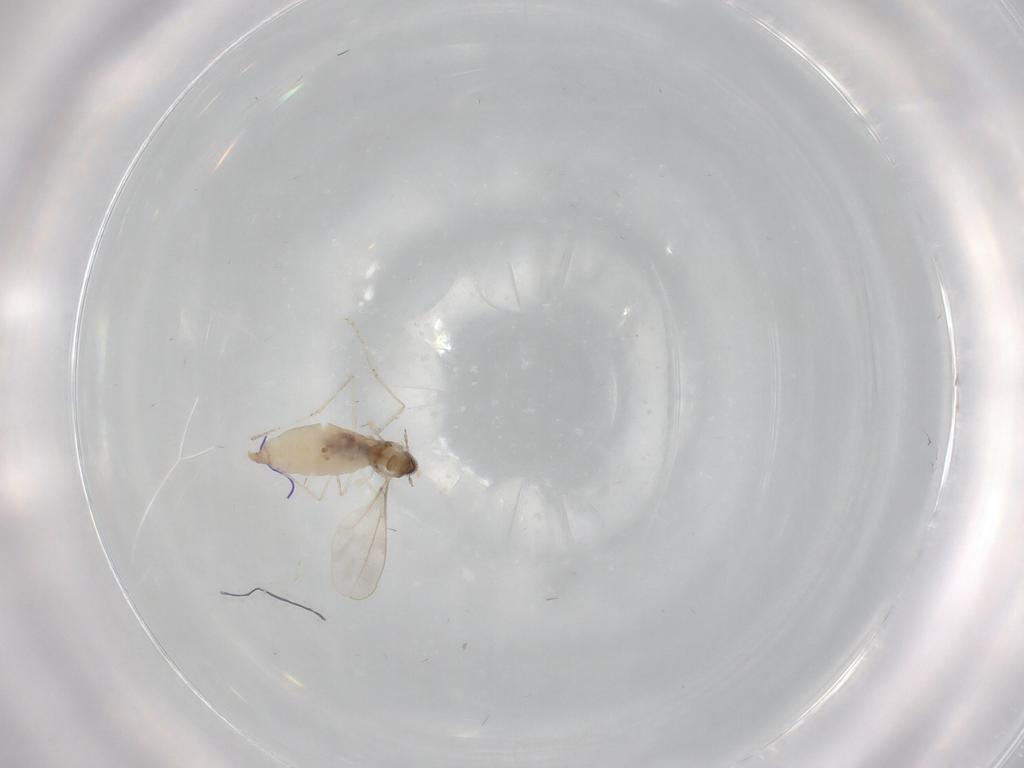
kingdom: Animalia
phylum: Arthropoda
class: Insecta
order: Diptera
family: Cecidomyiidae
